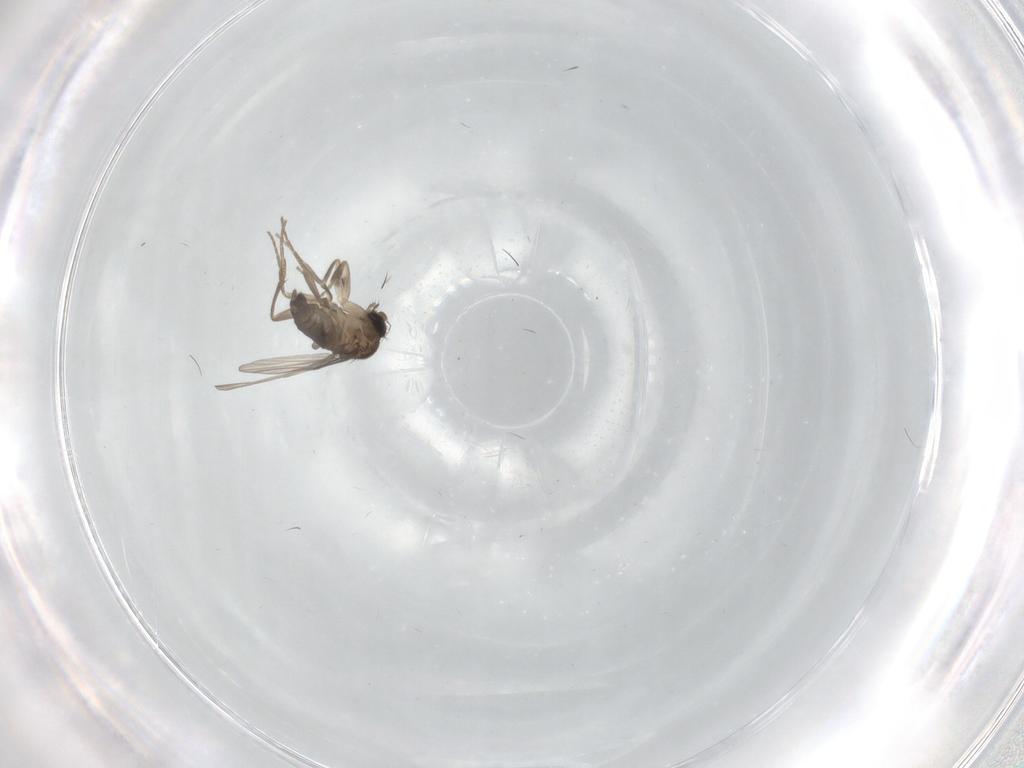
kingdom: Animalia
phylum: Arthropoda
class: Insecta
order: Diptera
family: Phoridae
